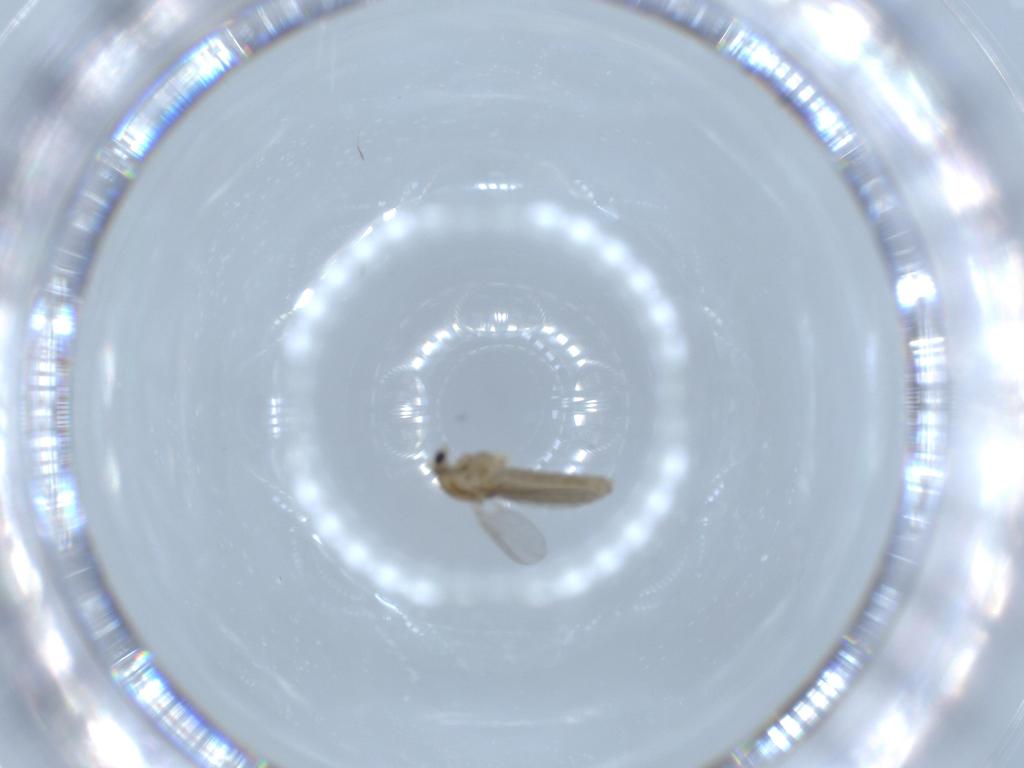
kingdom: Animalia
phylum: Arthropoda
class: Insecta
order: Diptera
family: Chironomidae
